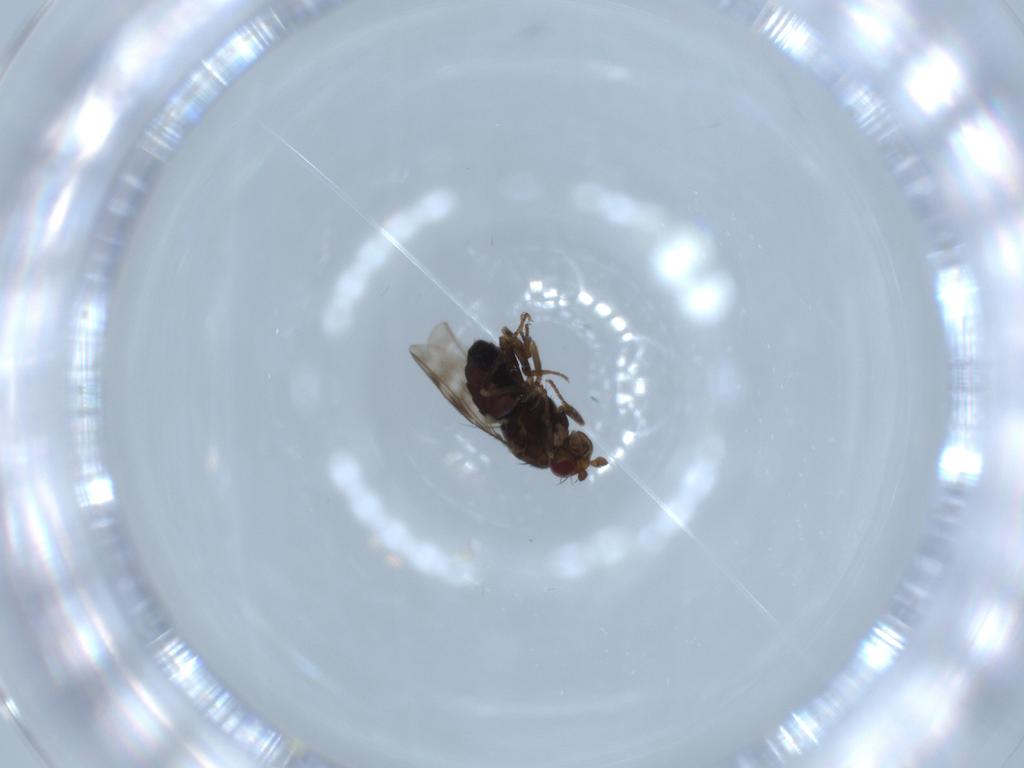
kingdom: Animalia
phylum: Arthropoda
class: Insecta
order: Diptera
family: Sphaeroceridae
